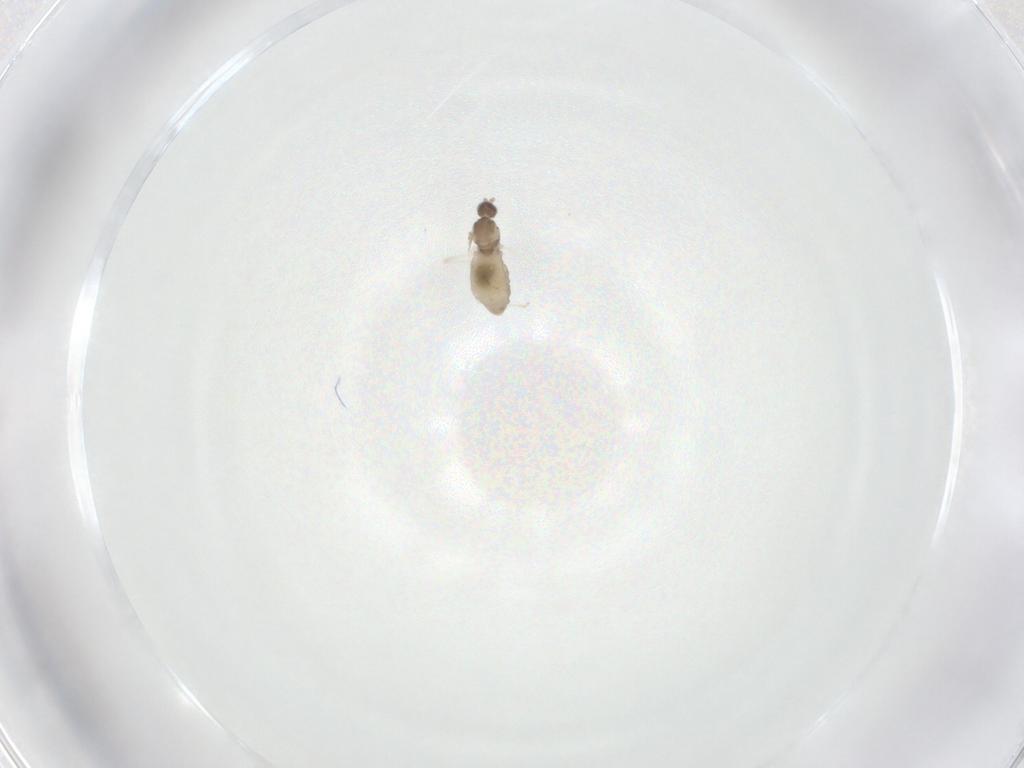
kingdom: Animalia
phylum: Arthropoda
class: Insecta
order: Diptera
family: Cecidomyiidae
